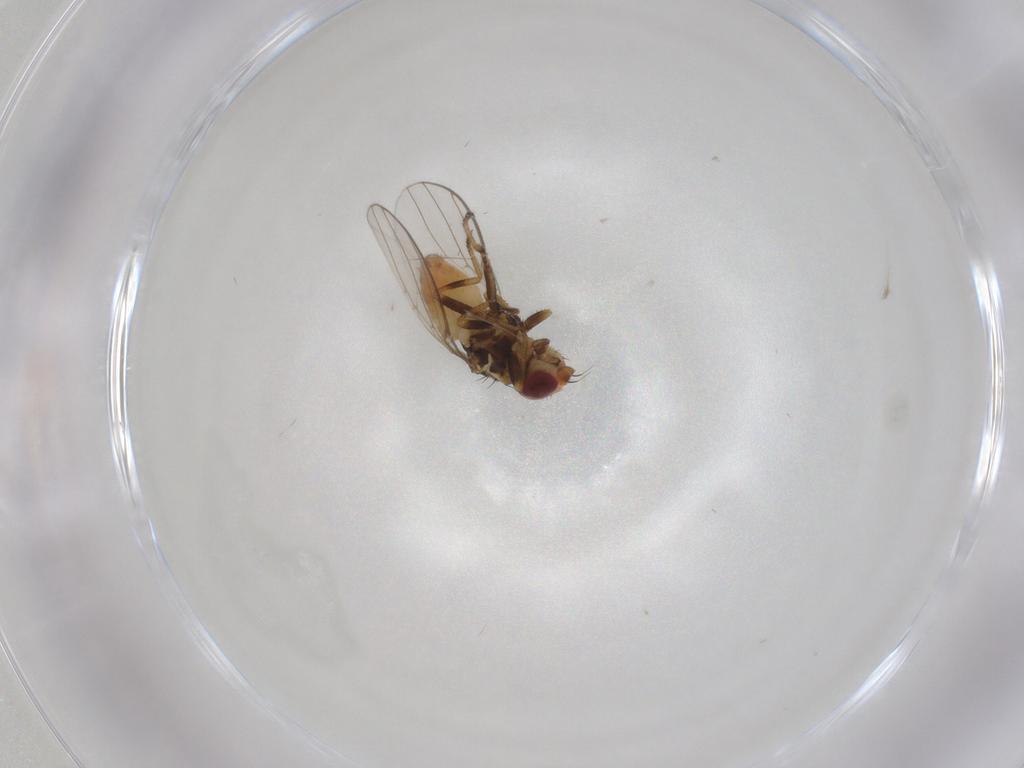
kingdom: Animalia
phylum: Arthropoda
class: Insecta
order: Diptera
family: Chloropidae
